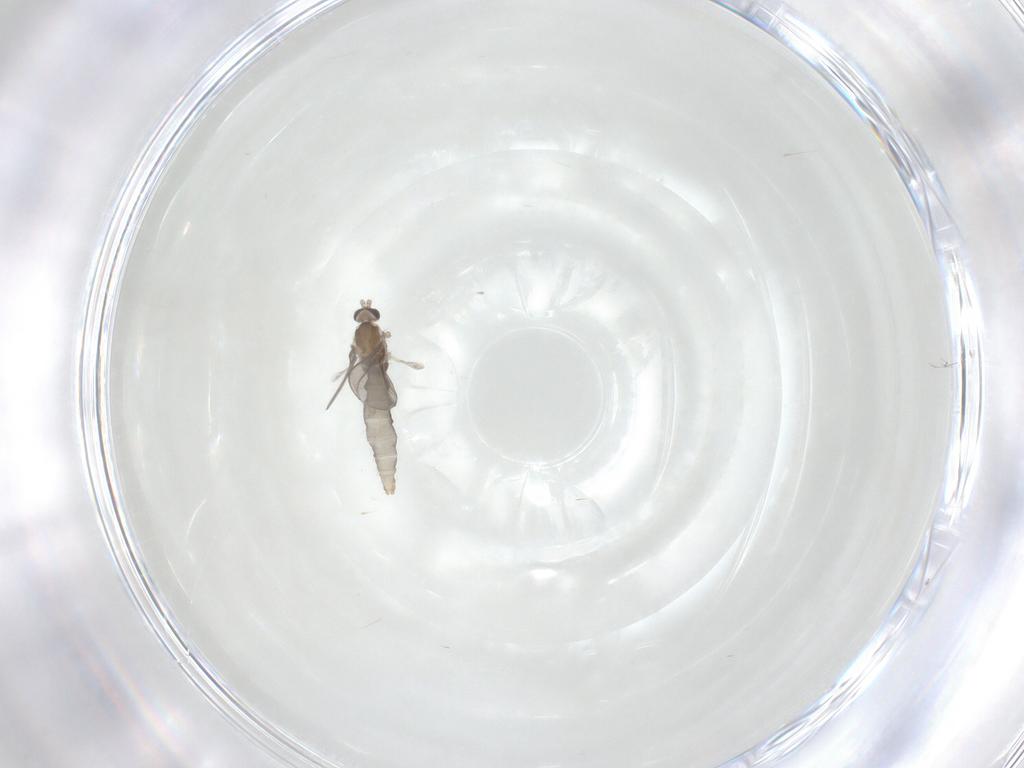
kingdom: Animalia
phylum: Arthropoda
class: Insecta
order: Diptera
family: Cecidomyiidae
